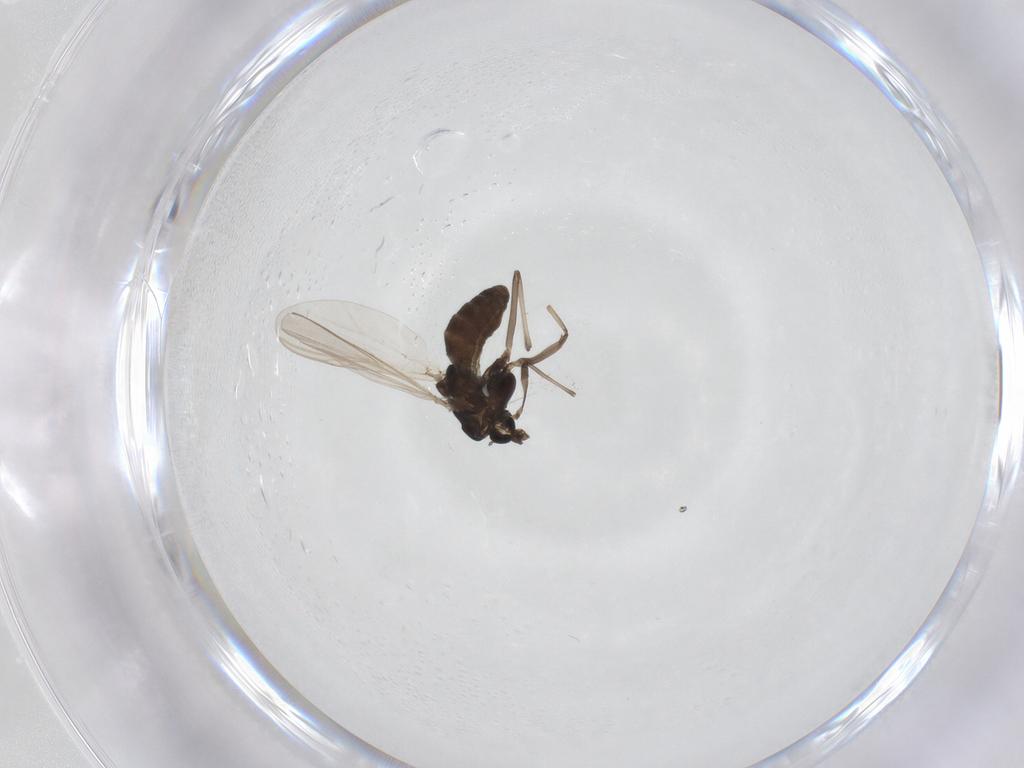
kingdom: Animalia
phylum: Arthropoda
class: Insecta
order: Diptera
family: Chironomidae
